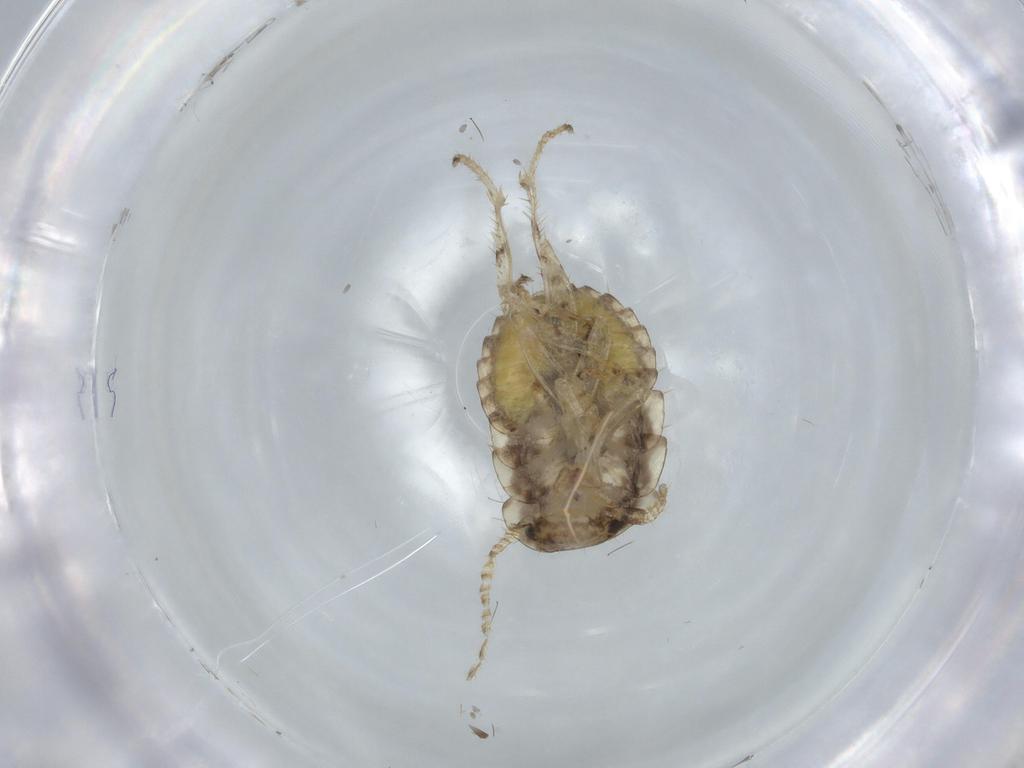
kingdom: Animalia
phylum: Arthropoda
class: Insecta
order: Blattodea
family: Ectobiidae
